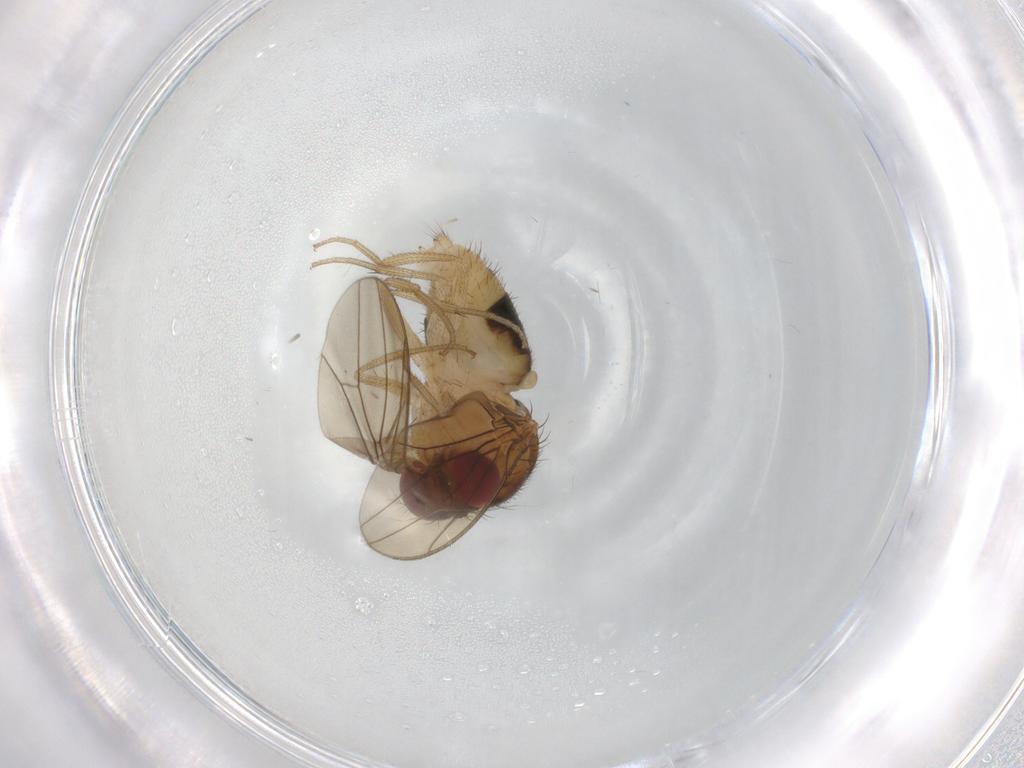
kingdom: Animalia
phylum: Arthropoda
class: Insecta
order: Diptera
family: Drosophilidae
